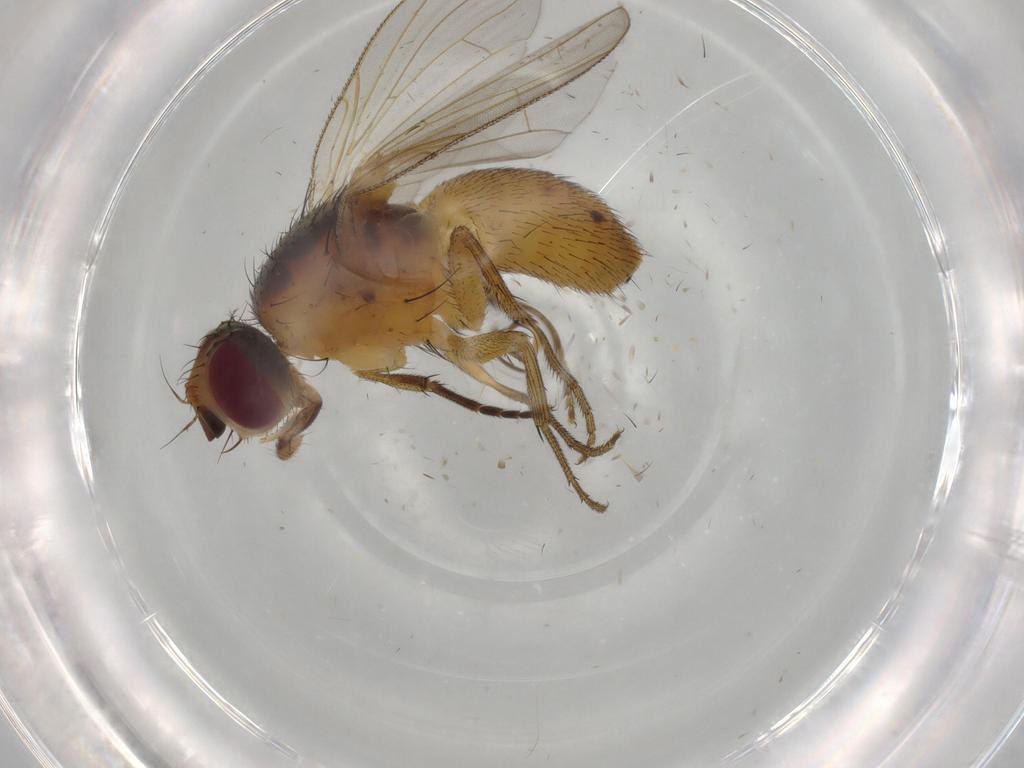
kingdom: Animalia
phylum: Arthropoda
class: Insecta
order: Diptera
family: Muscidae
